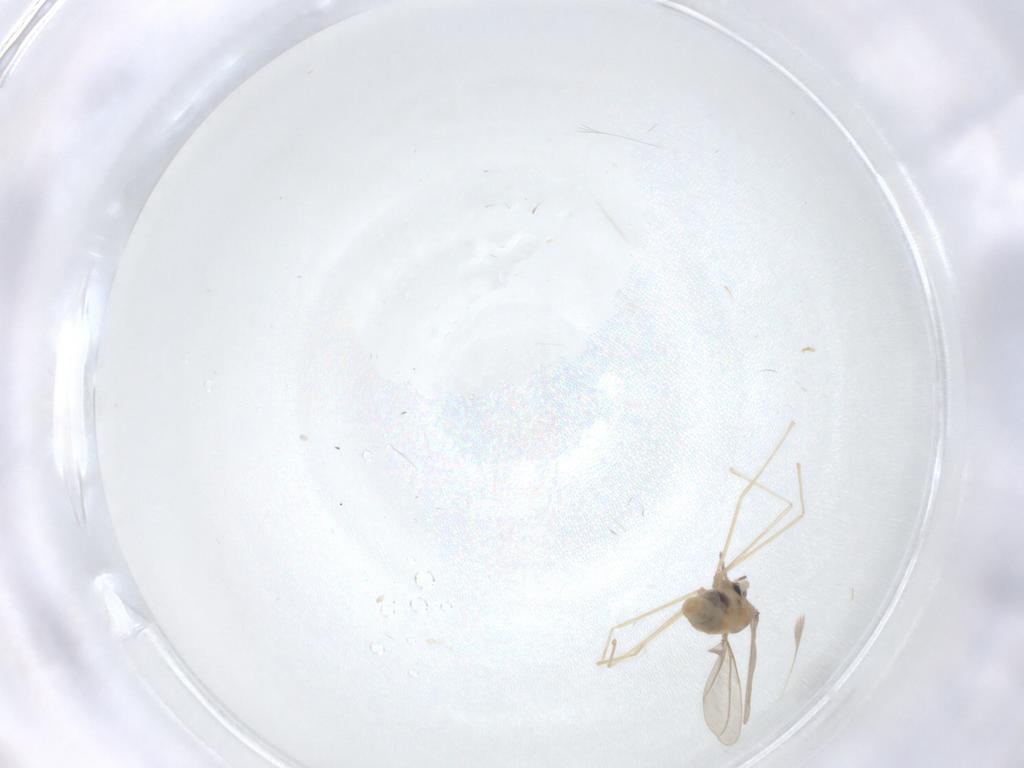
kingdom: Animalia
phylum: Arthropoda
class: Insecta
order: Diptera
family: Cecidomyiidae
